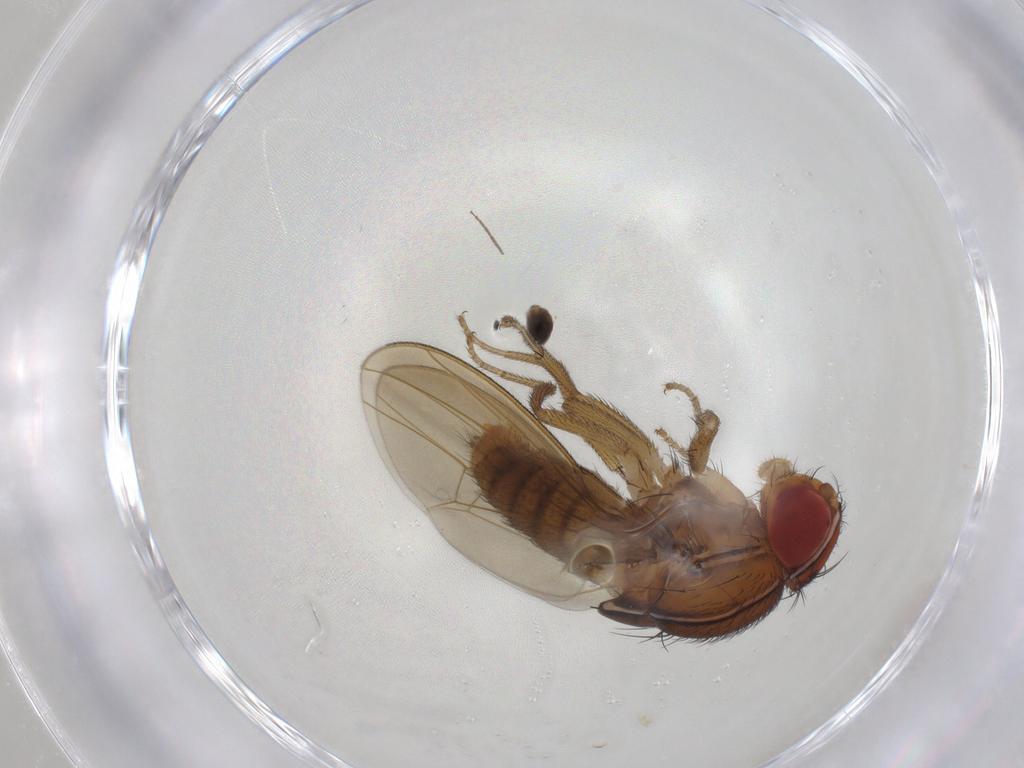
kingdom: Animalia
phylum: Arthropoda
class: Insecta
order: Diptera
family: Drosophilidae
